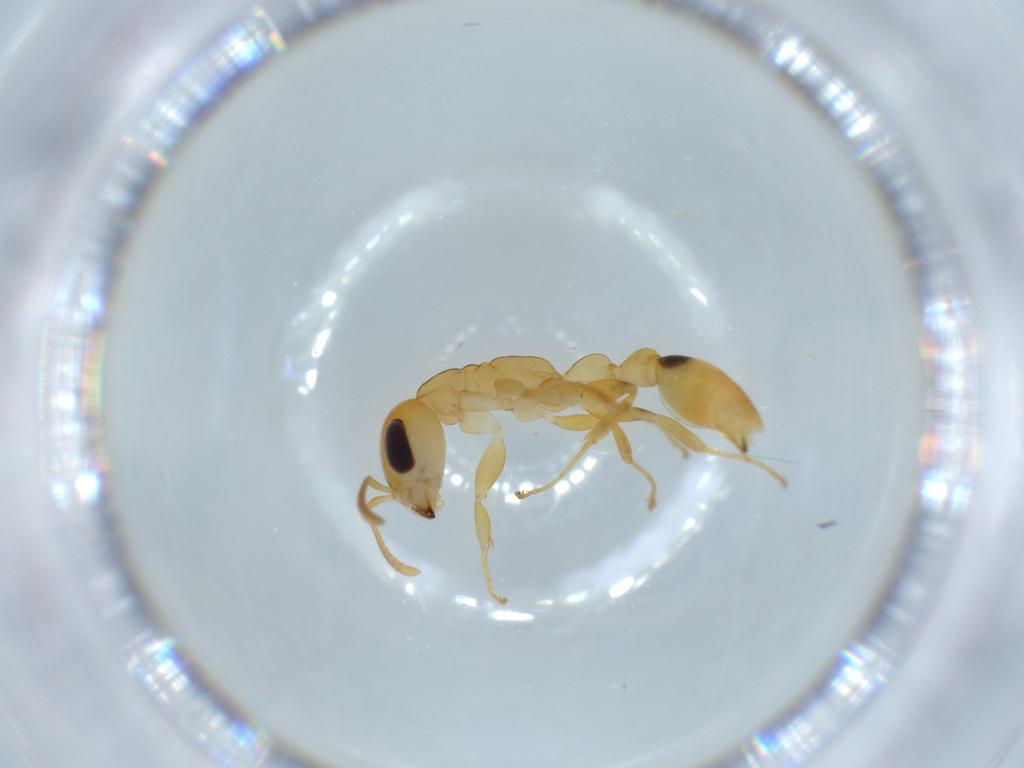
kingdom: Animalia
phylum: Arthropoda
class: Insecta
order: Hymenoptera
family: Formicidae
